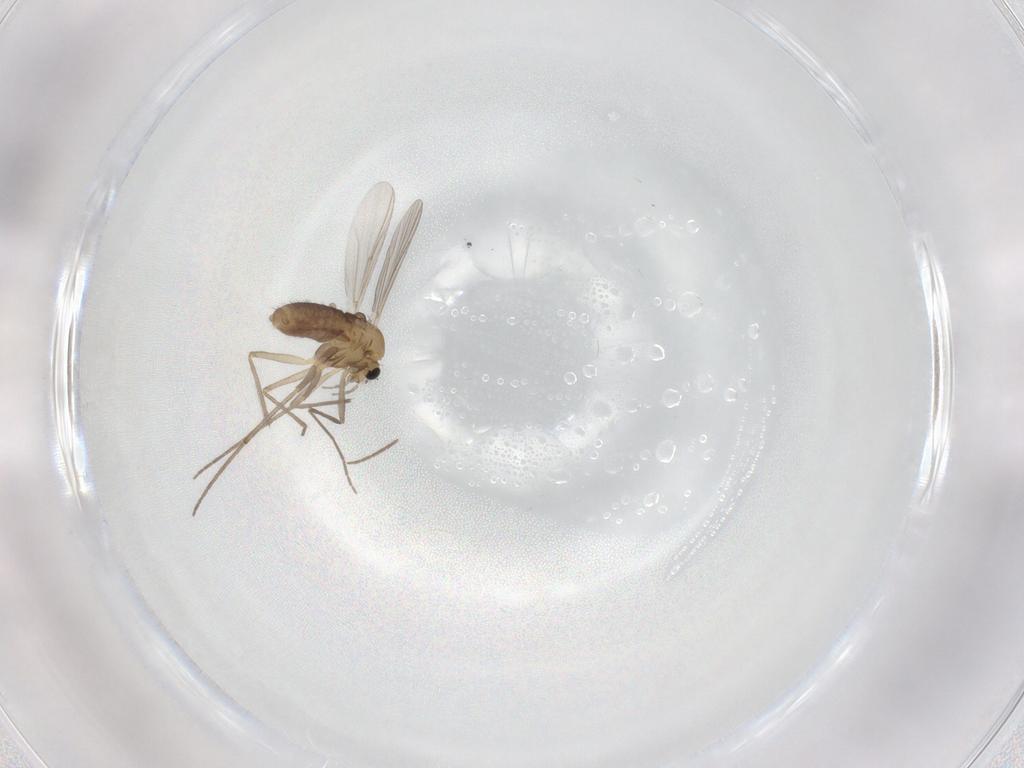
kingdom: Animalia
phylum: Arthropoda
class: Insecta
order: Diptera
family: Chironomidae
